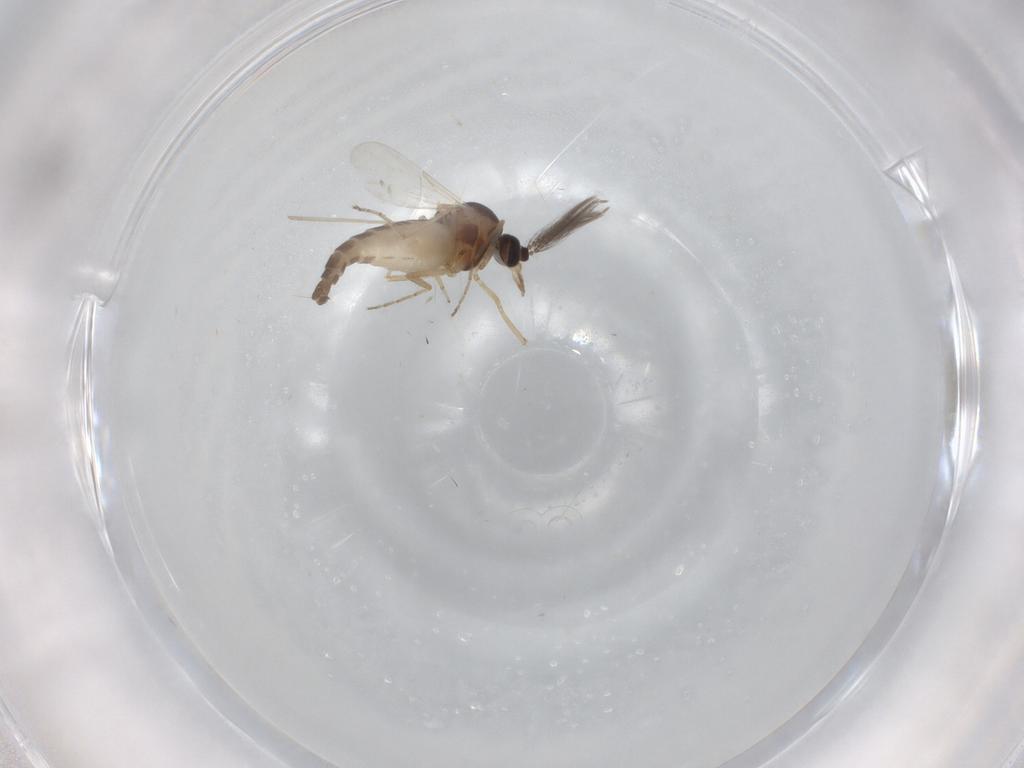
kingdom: Animalia
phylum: Arthropoda
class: Insecta
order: Diptera
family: Ceratopogonidae
